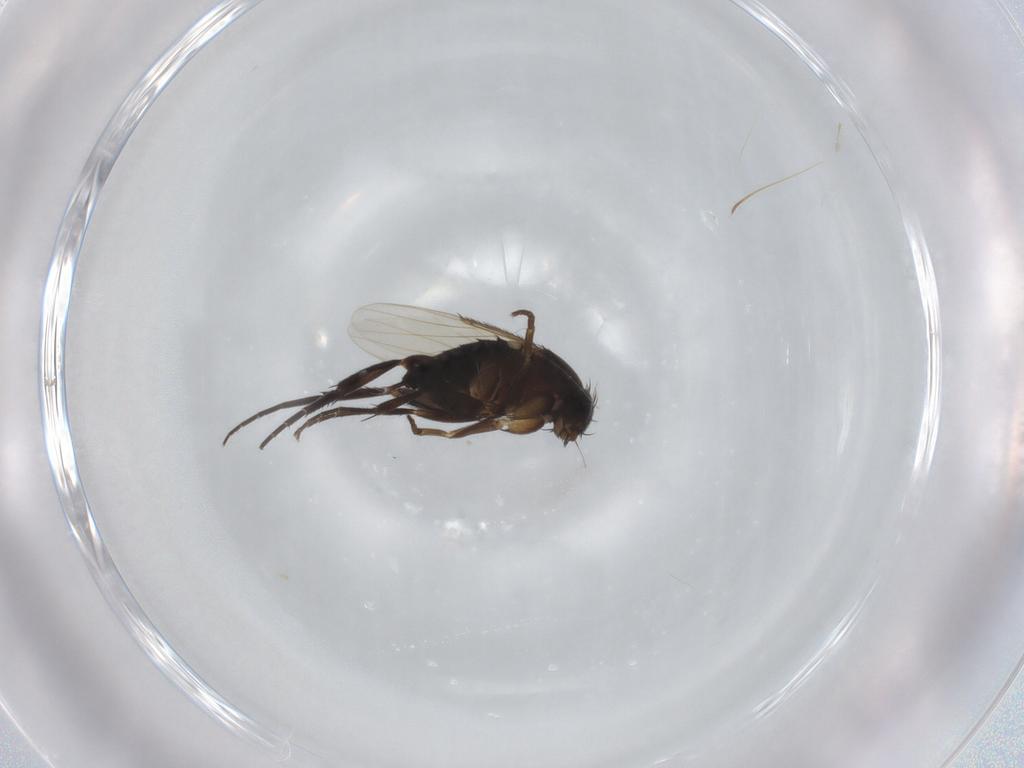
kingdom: Animalia
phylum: Arthropoda
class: Insecta
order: Diptera
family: Phoridae
